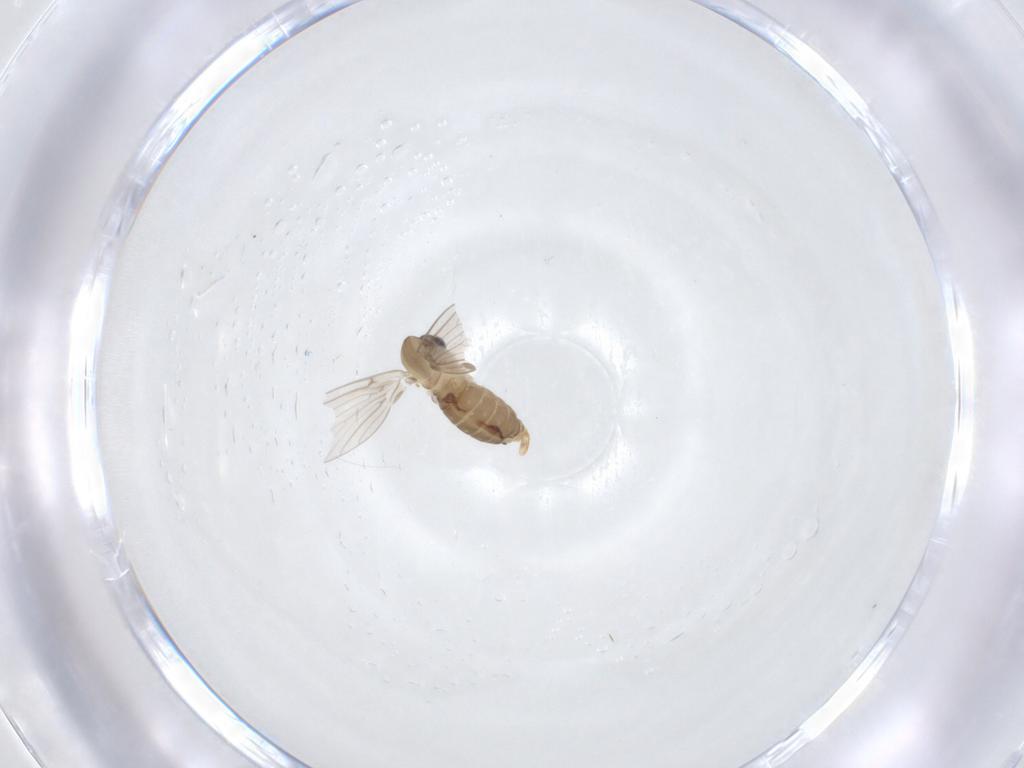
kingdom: Animalia
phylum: Arthropoda
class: Insecta
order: Diptera
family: Psychodidae
